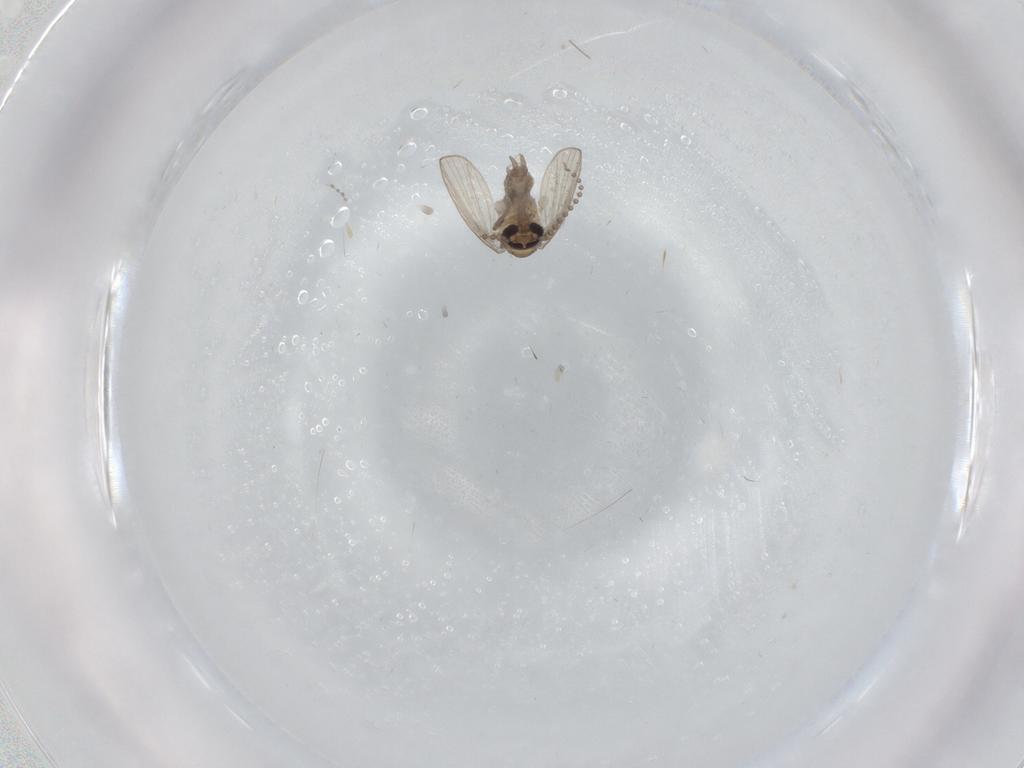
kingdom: Animalia
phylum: Arthropoda
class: Insecta
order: Diptera
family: Psychodidae
